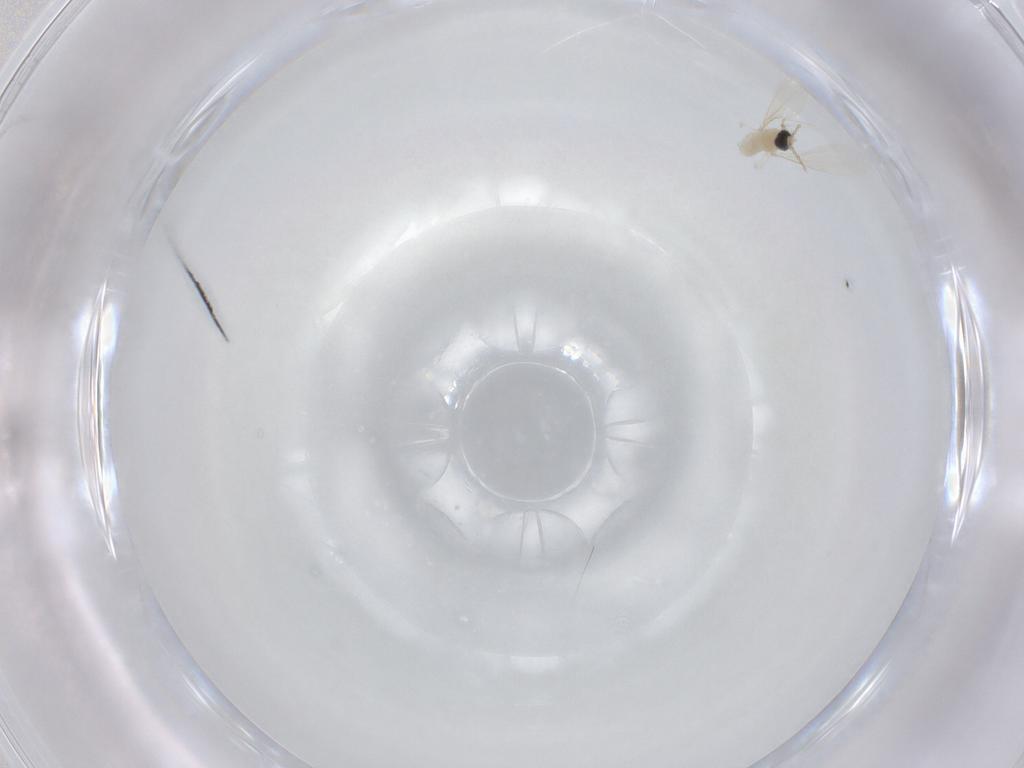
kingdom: Animalia
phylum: Arthropoda
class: Insecta
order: Diptera
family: Cecidomyiidae
